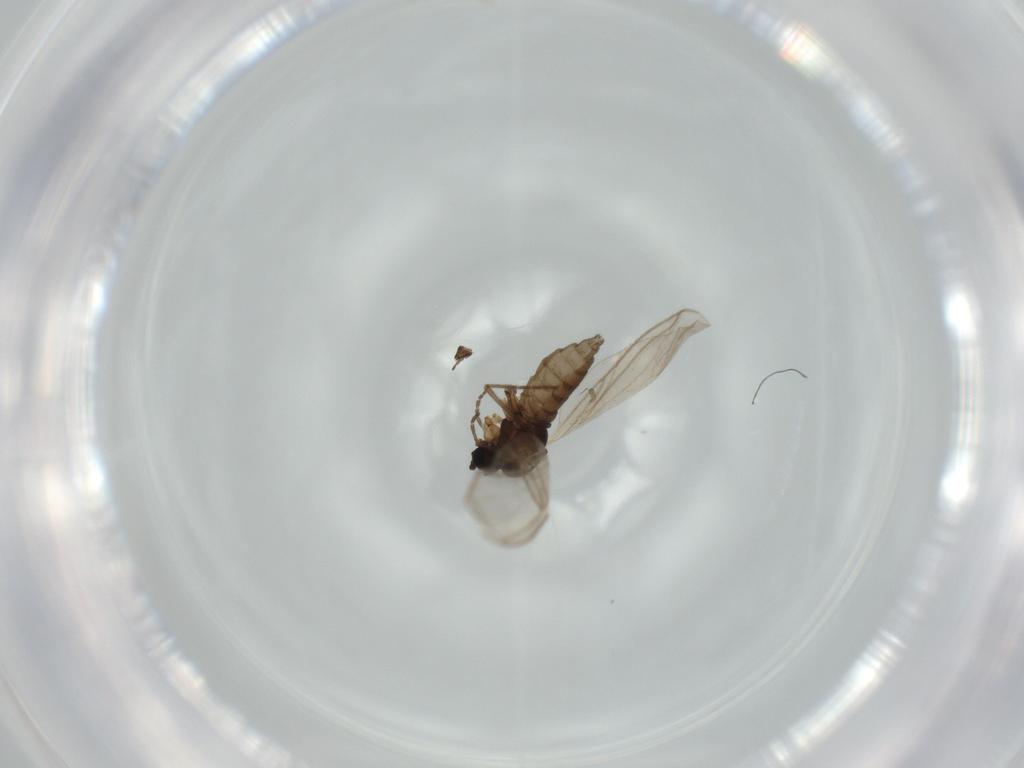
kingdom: Animalia
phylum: Arthropoda
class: Insecta
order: Diptera
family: Sciaridae
